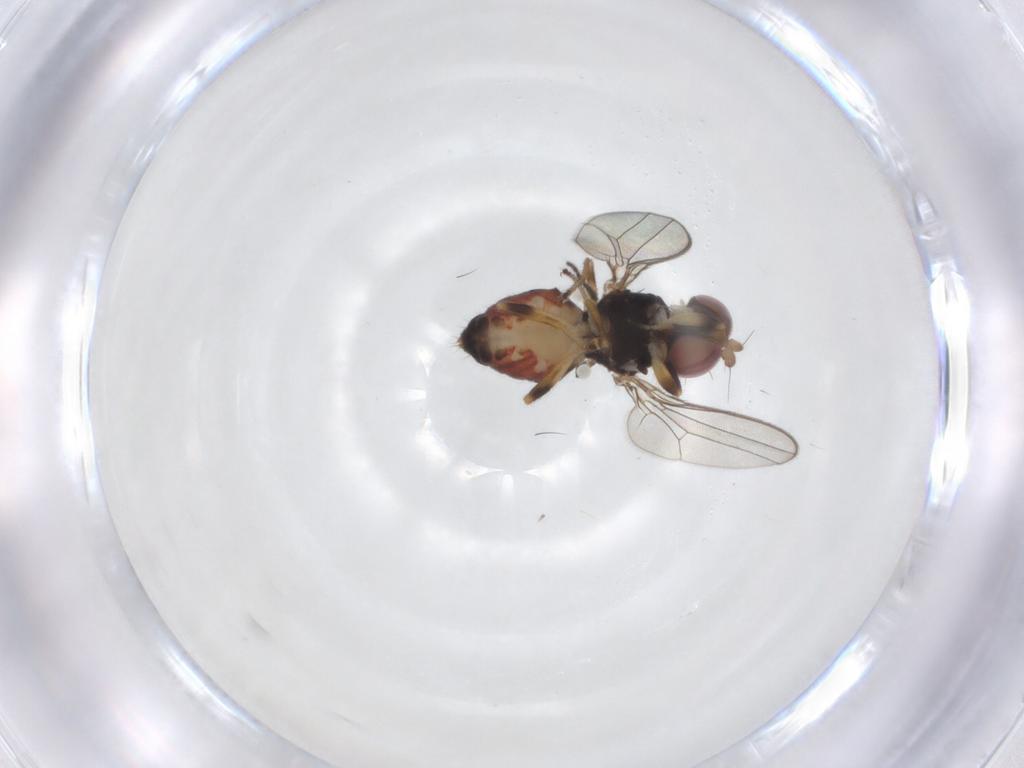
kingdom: Animalia
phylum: Arthropoda
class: Insecta
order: Diptera
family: Aulacigastridae
